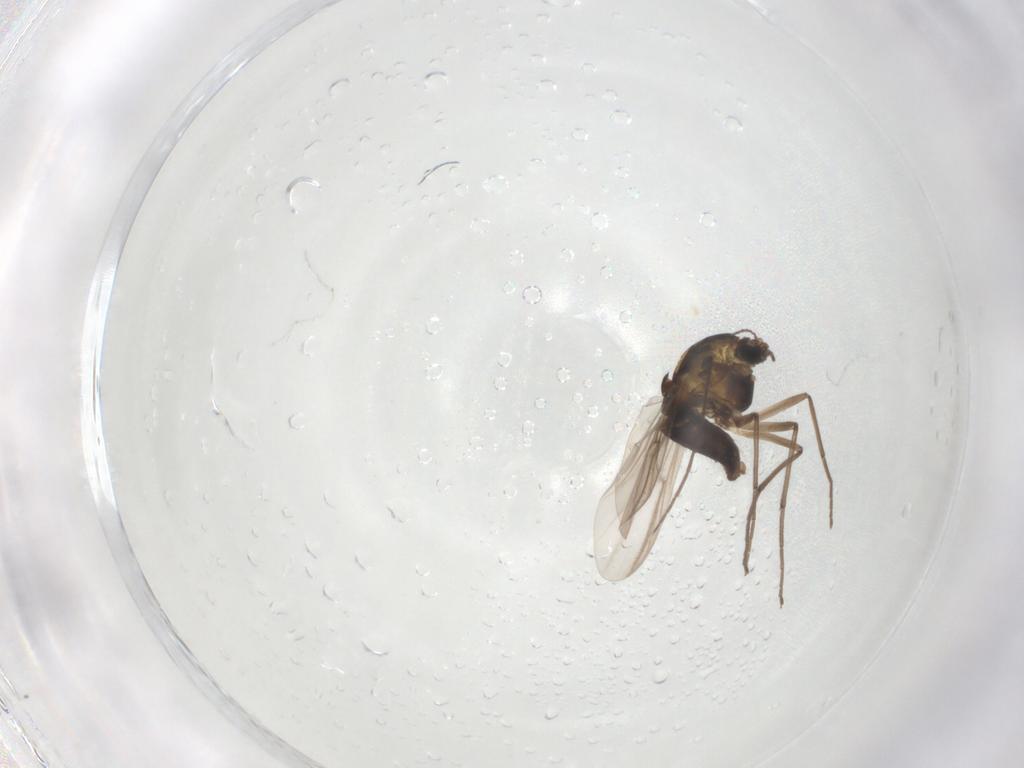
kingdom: Animalia
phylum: Arthropoda
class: Insecta
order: Diptera
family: Chironomidae
